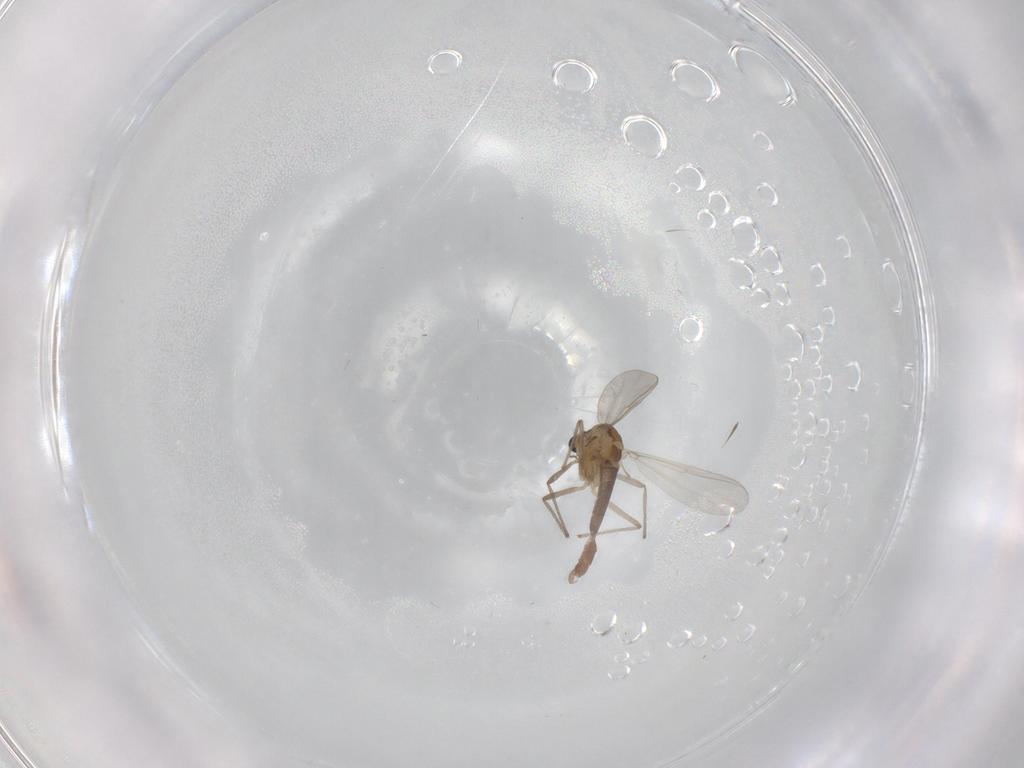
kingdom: Animalia
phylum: Arthropoda
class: Insecta
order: Diptera
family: Chironomidae
